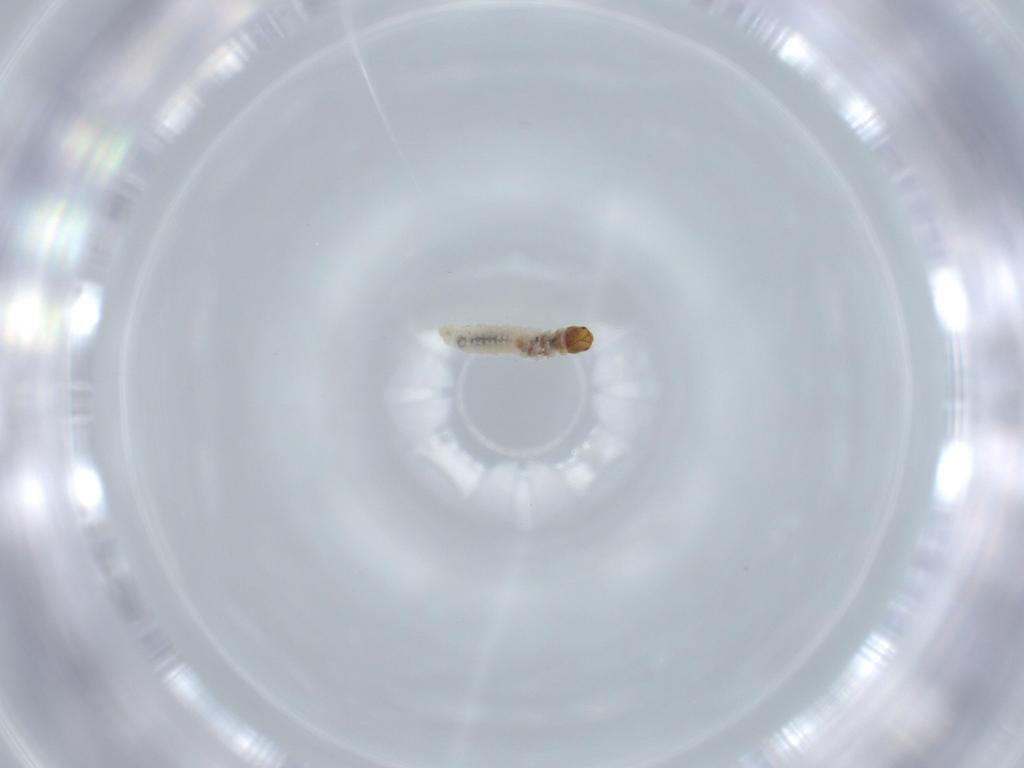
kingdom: Animalia
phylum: Arthropoda
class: Insecta
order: Lepidoptera
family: Psychidae
